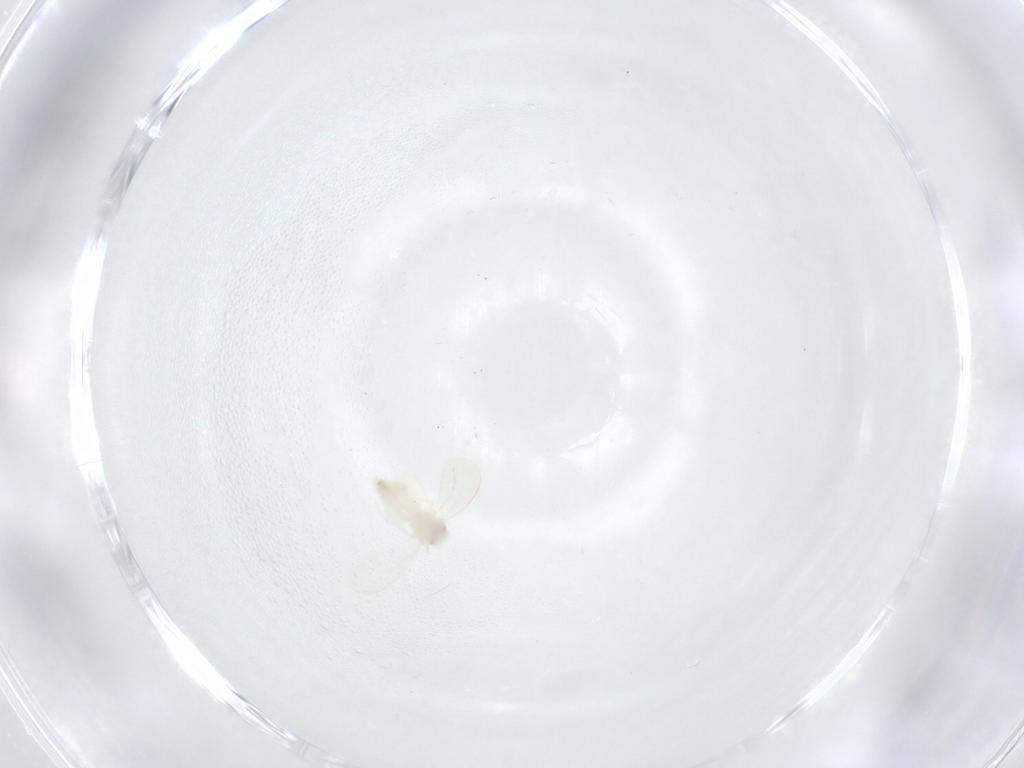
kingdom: Animalia
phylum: Arthropoda
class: Insecta
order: Hemiptera
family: Aleyrodidae
